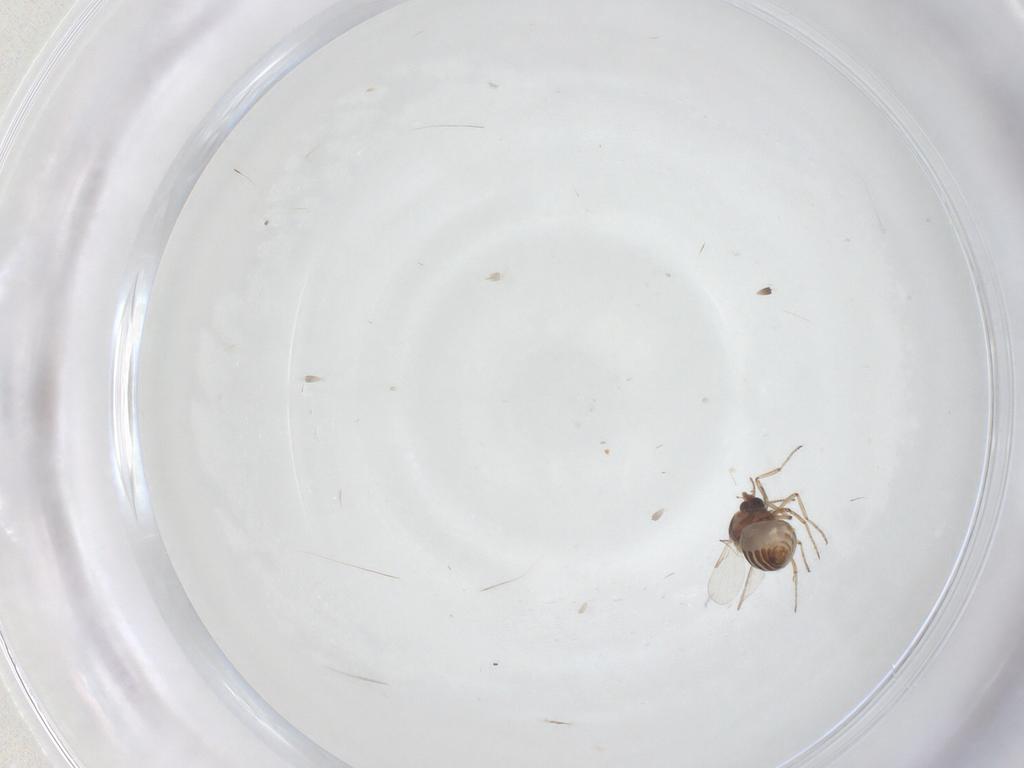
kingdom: Animalia
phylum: Arthropoda
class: Insecta
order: Diptera
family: Ceratopogonidae
